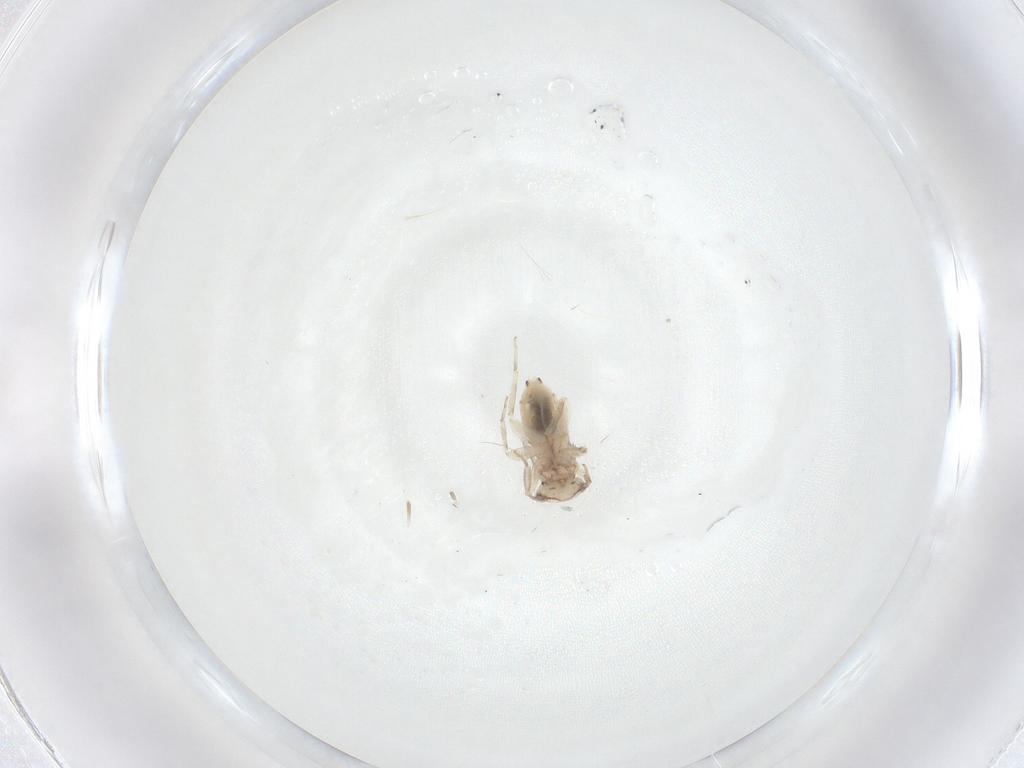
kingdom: Animalia
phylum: Arthropoda
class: Insecta
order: Psocodea
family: Lepidopsocidae
